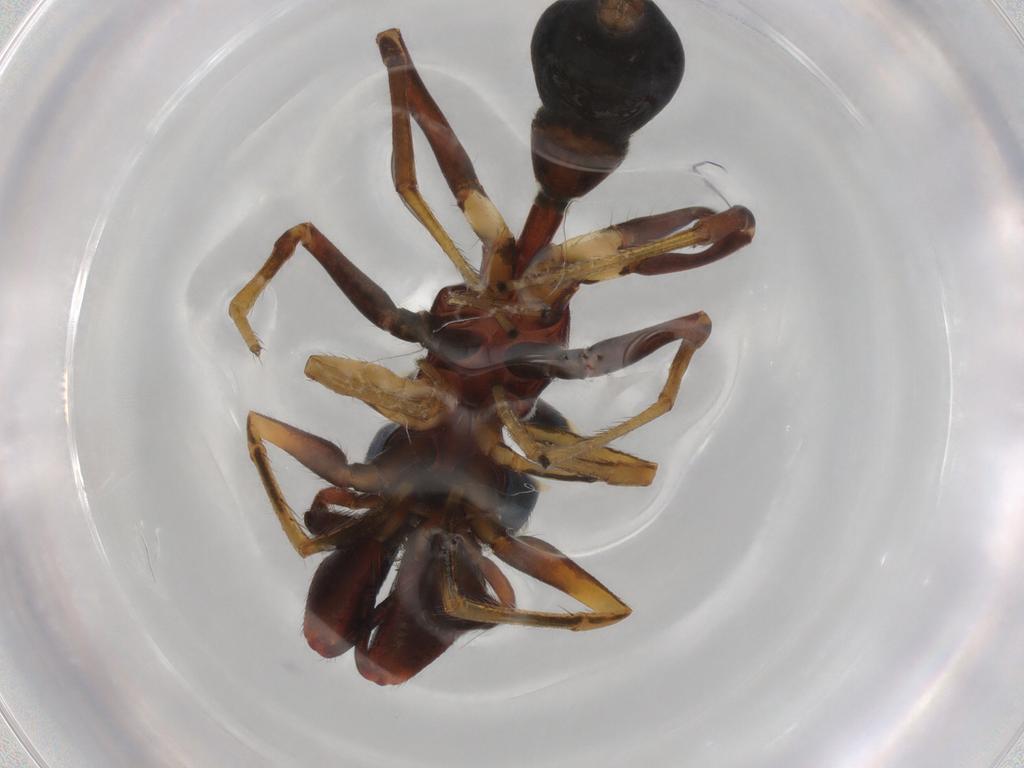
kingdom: Animalia
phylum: Arthropoda
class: Arachnida
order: Araneae
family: Salticidae
